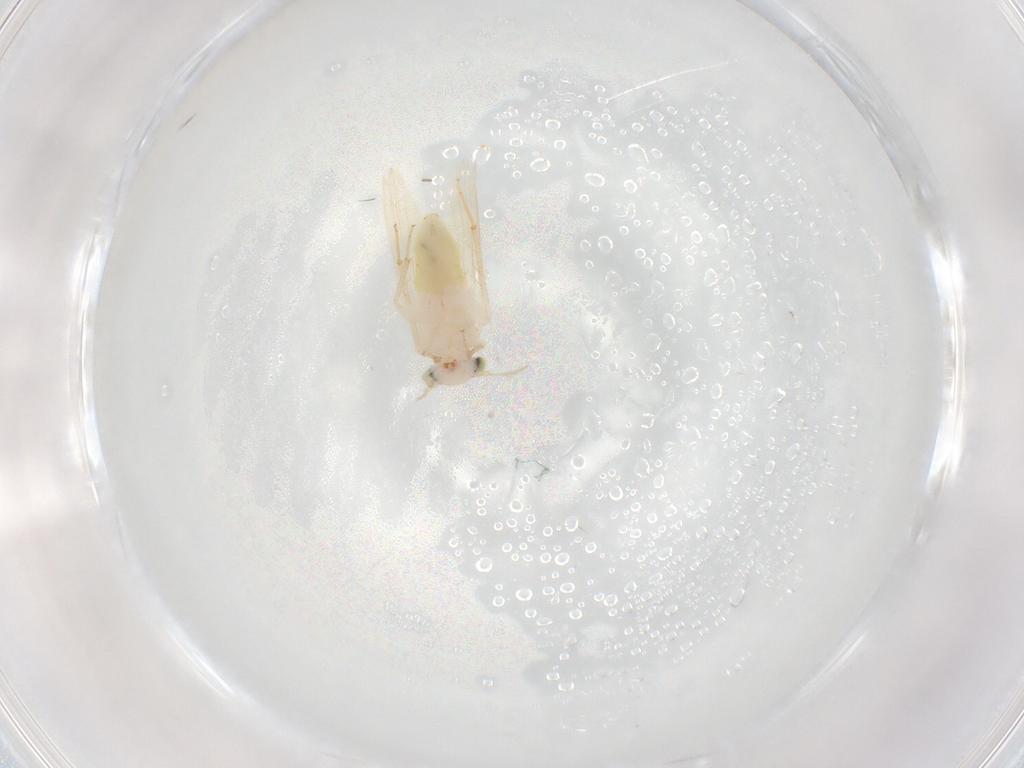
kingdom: Animalia
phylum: Arthropoda
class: Insecta
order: Psocodea
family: Lepidopsocidae
